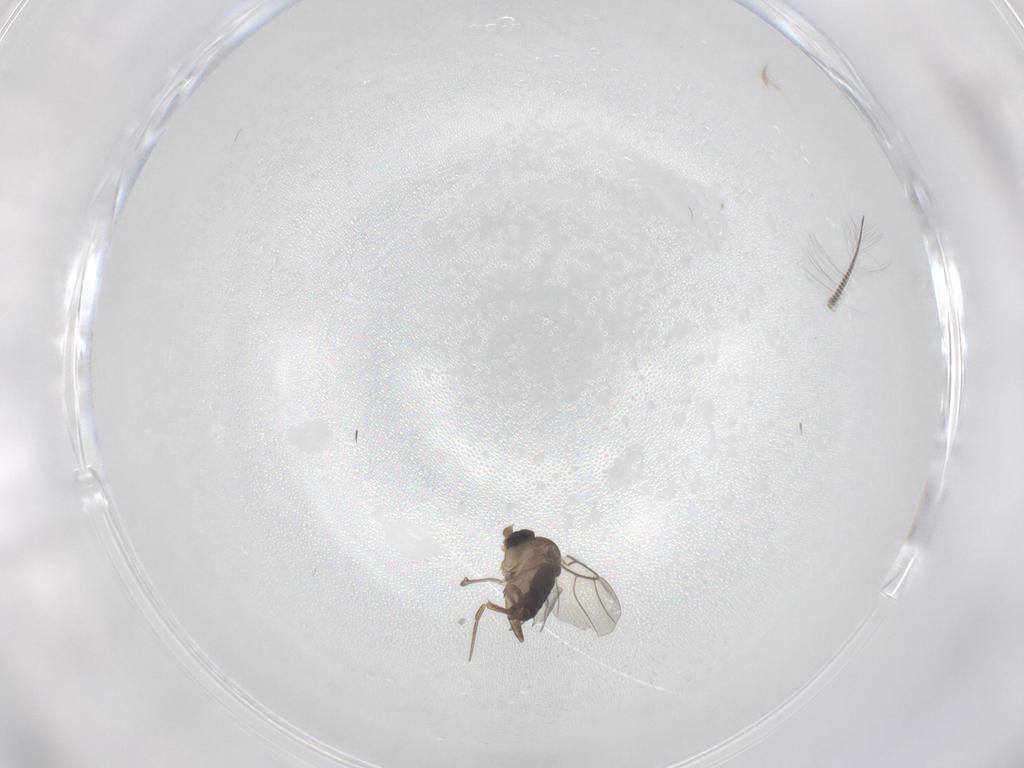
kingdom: Animalia
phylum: Arthropoda
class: Insecta
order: Diptera
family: Phoridae
